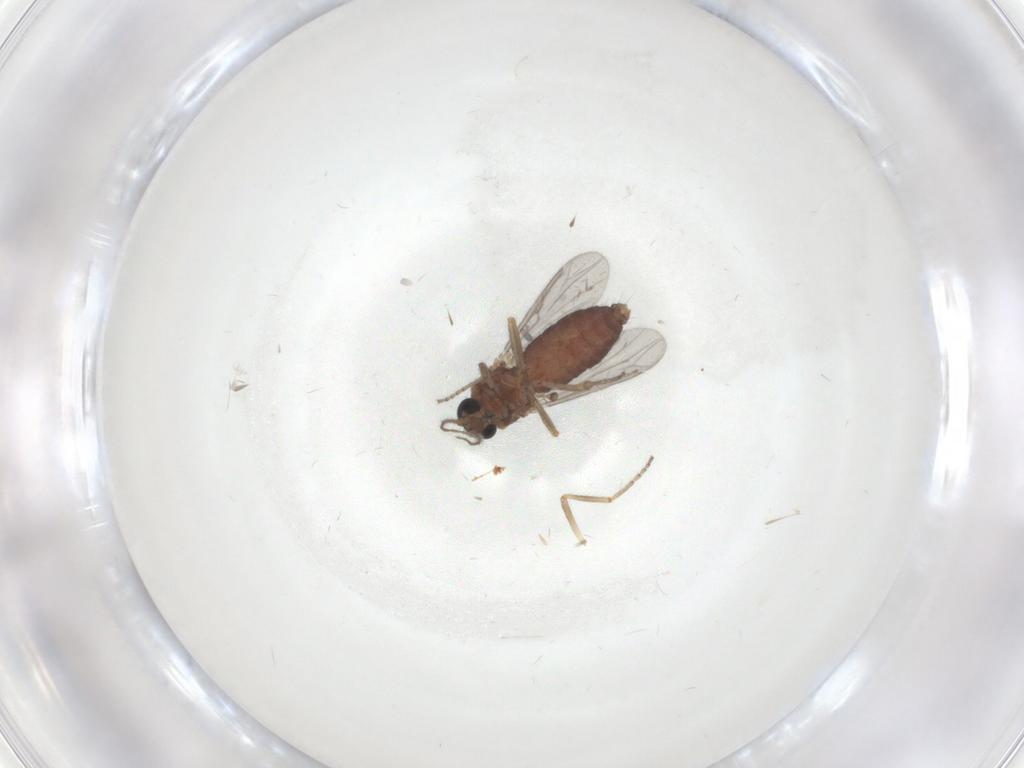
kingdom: Animalia
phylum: Arthropoda
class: Insecta
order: Diptera
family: Ceratopogonidae
